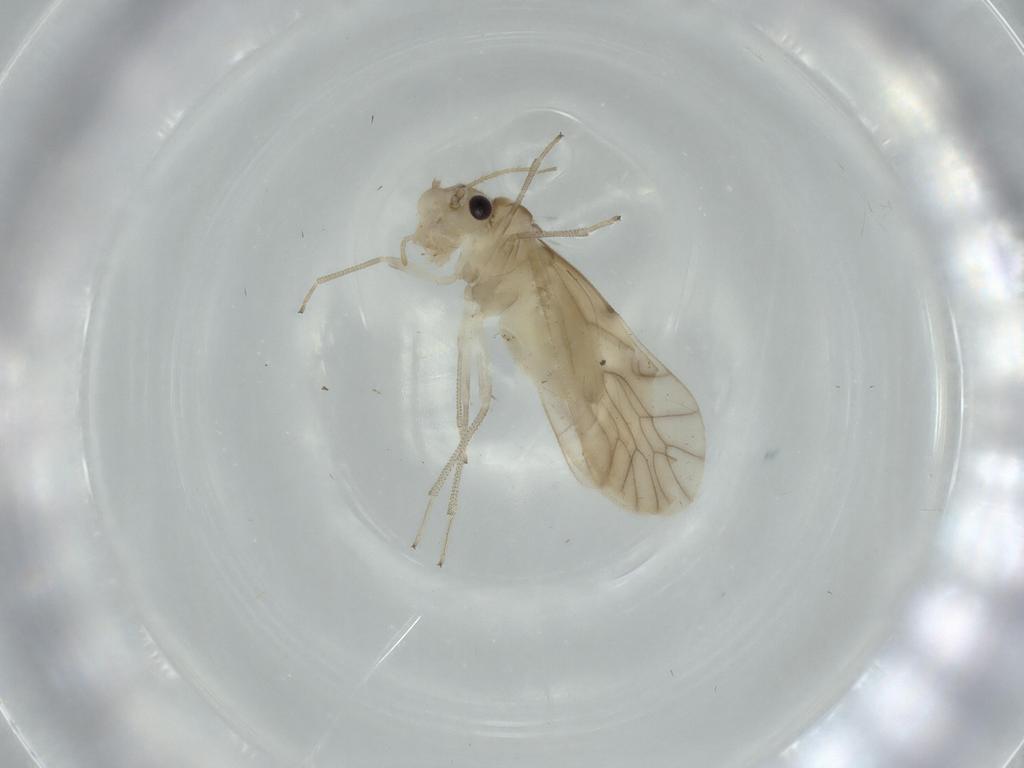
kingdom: Animalia
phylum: Arthropoda
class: Insecta
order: Psocodea
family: Caeciliusidae
